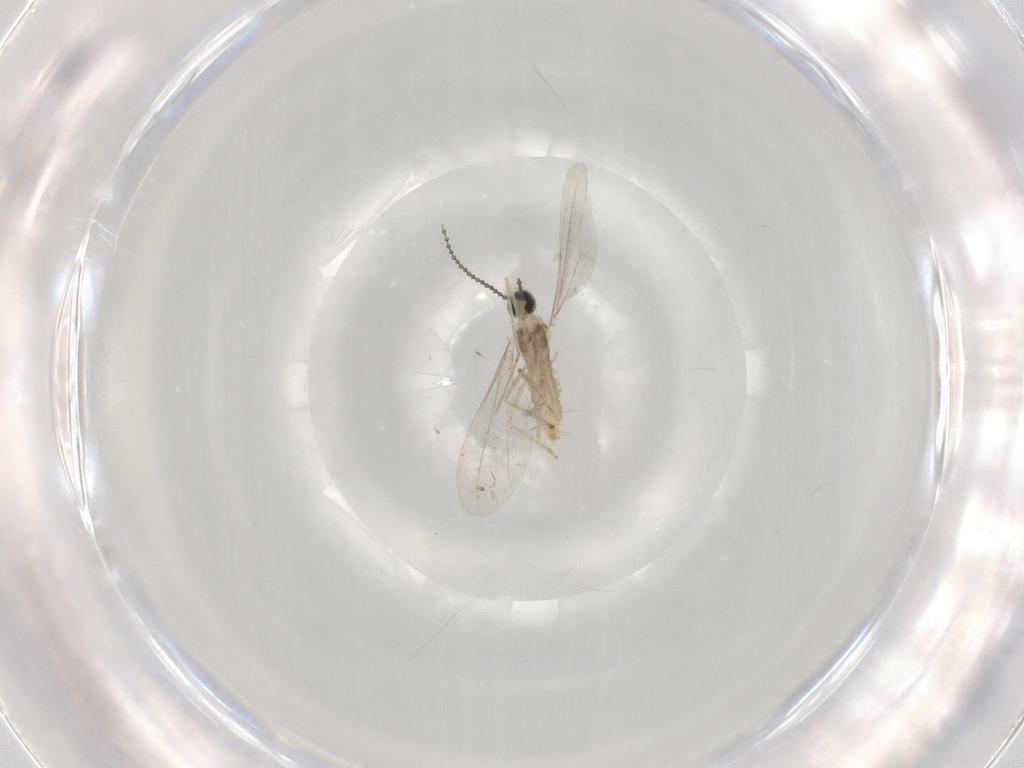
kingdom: Animalia
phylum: Arthropoda
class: Insecta
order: Diptera
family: Cecidomyiidae
